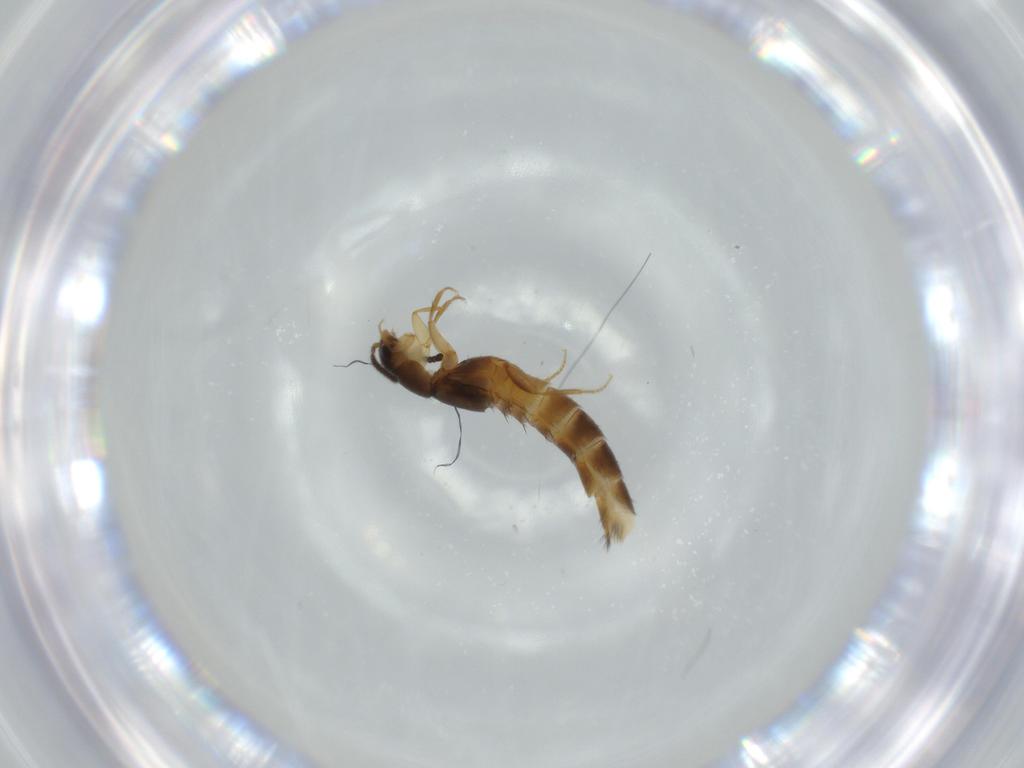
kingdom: Animalia
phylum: Arthropoda
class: Insecta
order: Coleoptera
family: Staphylinidae
